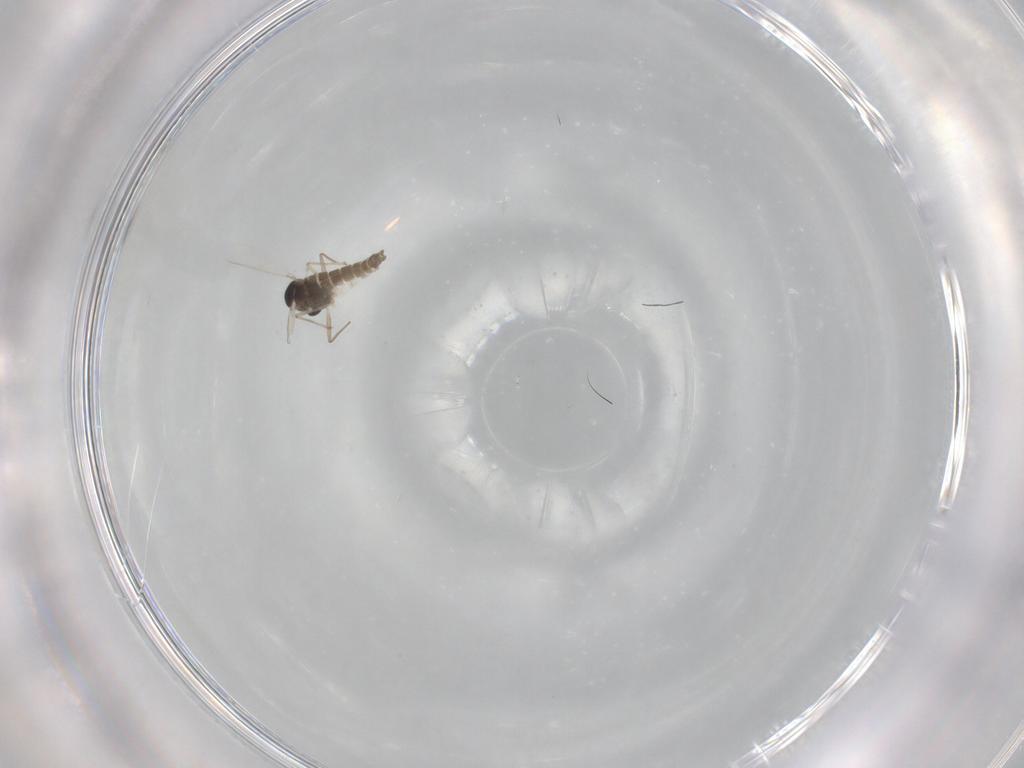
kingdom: Animalia
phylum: Arthropoda
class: Insecta
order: Diptera
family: Chironomidae
